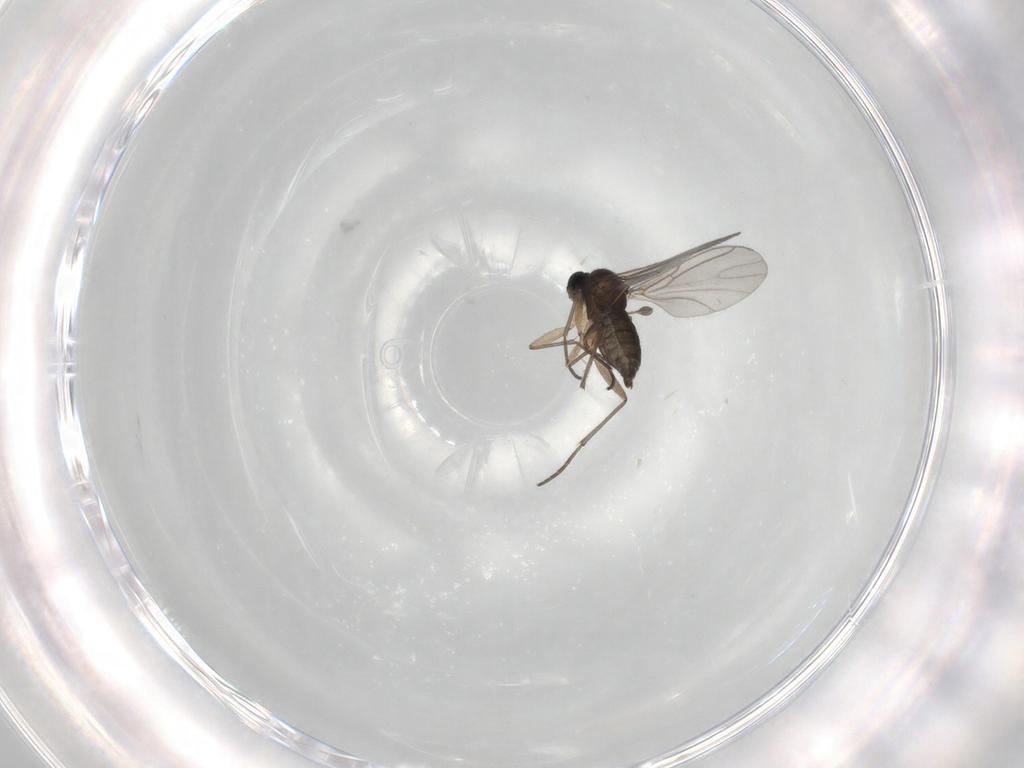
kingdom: Animalia
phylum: Arthropoda
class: Insecta
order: Diptera
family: Sciaridae
